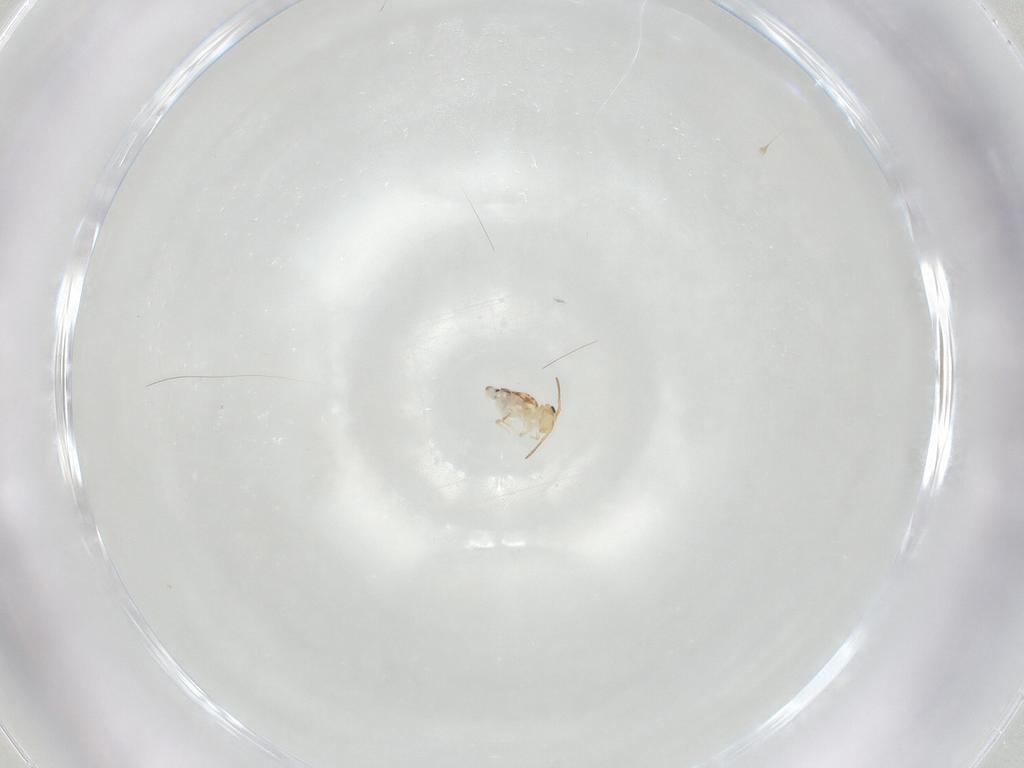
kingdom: Animalia
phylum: Arthropoda
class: Collembola
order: Symphypleona
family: Bourletiellidae
